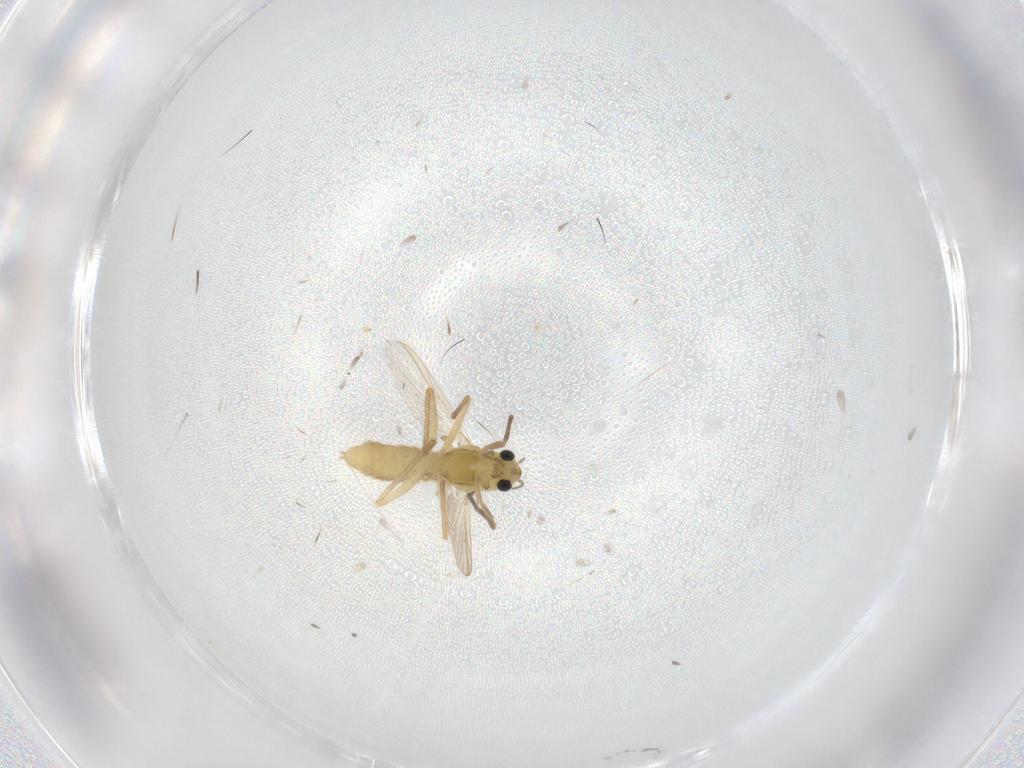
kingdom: Animalia
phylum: Arthropoda
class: Insecta
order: Diptera
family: Chironomidae
